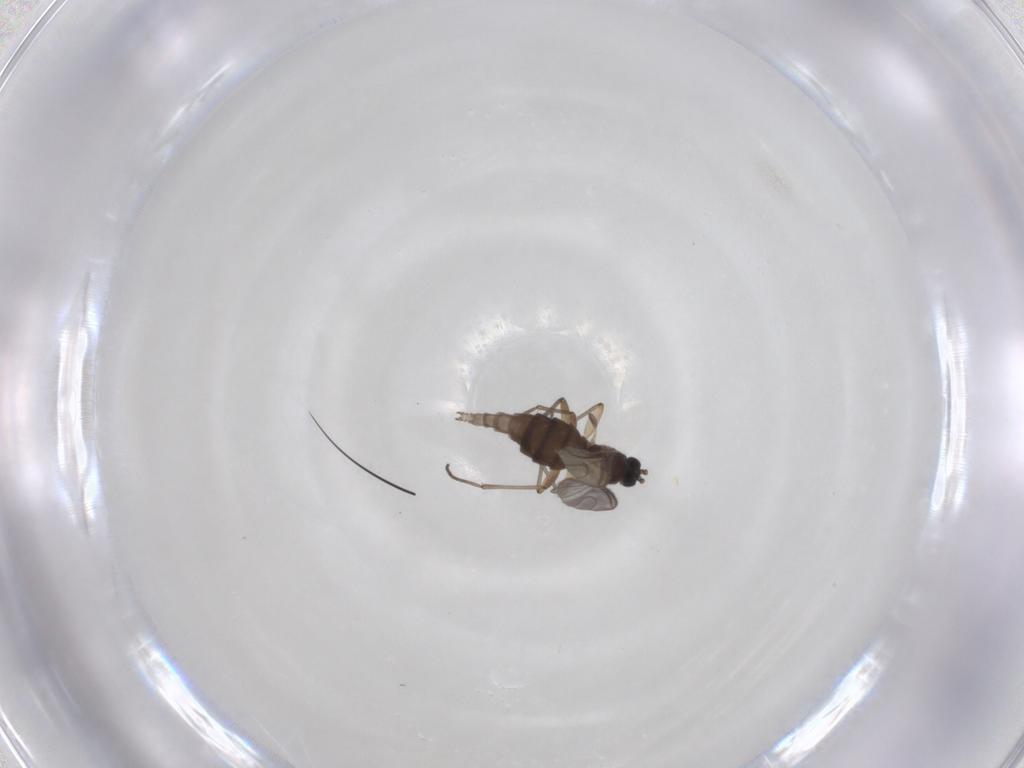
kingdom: Animalia
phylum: Arthropoda
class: Insecta
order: Diptera
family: Sciaridae
